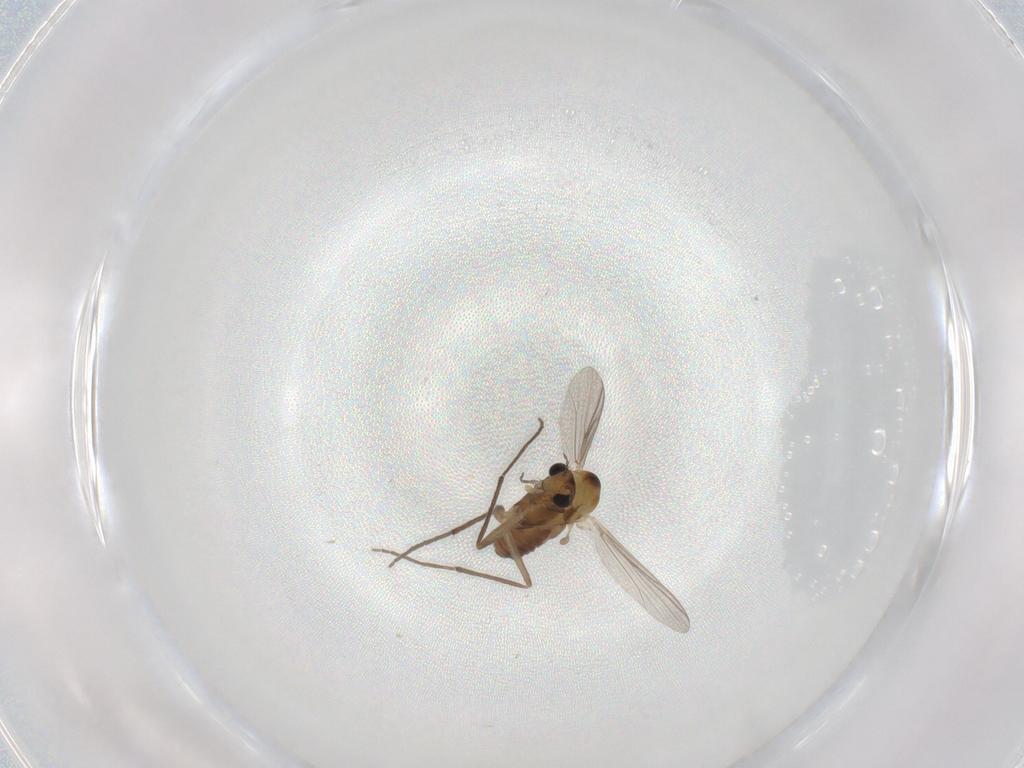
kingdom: Animalia
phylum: Arthropoda
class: Insecta
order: Diptera
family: Chironomidae
